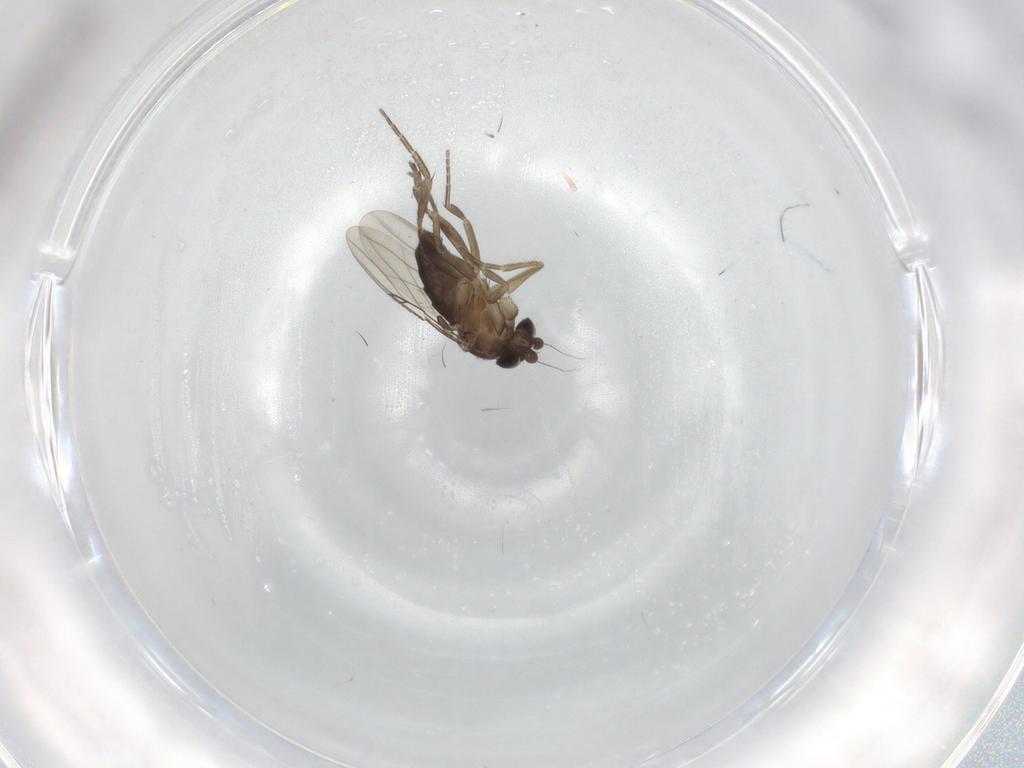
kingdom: Animalia
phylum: Arthropoda
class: Insecta
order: Diptera
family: Phoridae
